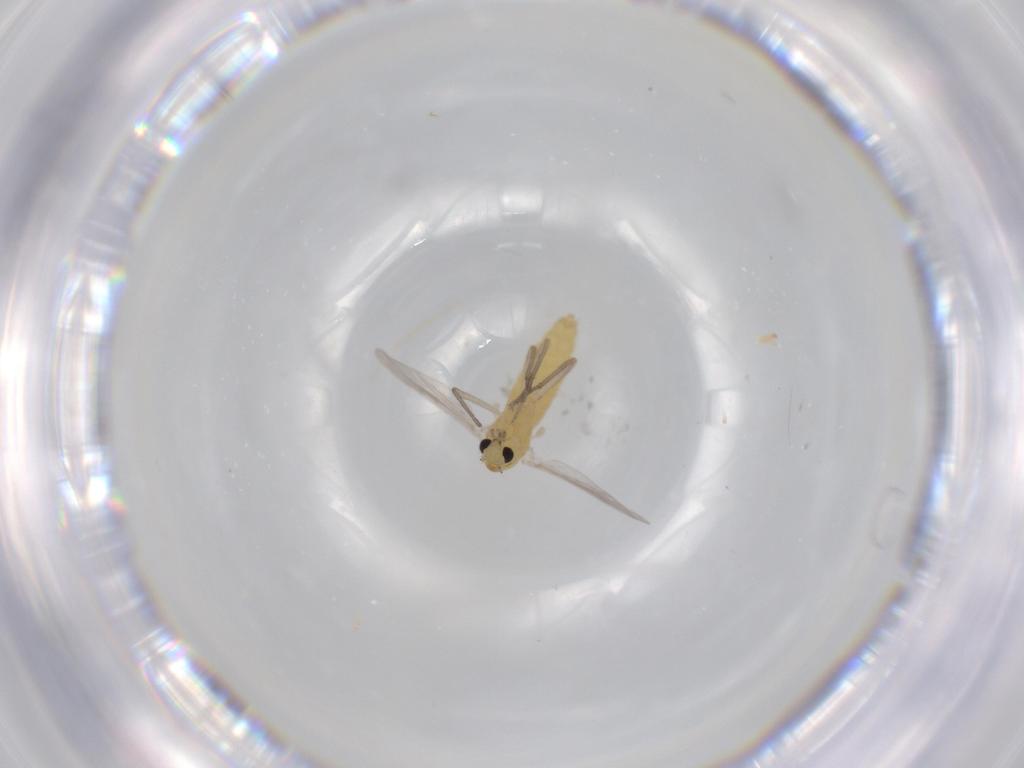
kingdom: Animalia
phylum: Arthropoda
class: Insecta
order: Diptera
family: Chironomidae
